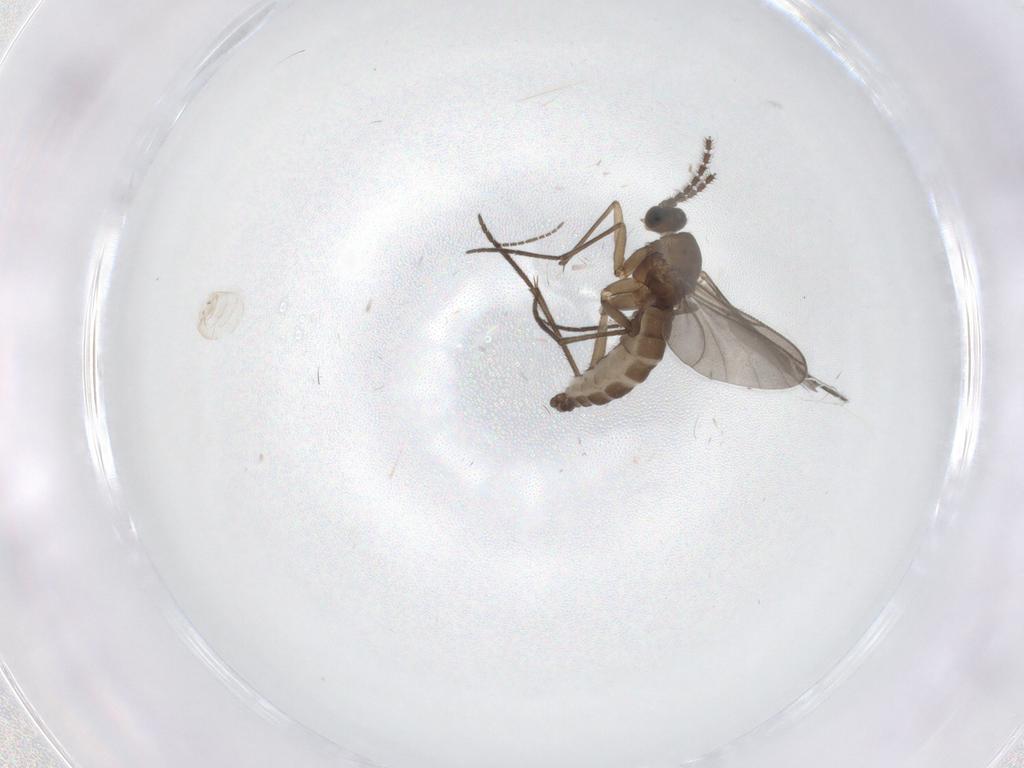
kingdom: Animalia
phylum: Arthropoda
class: Insecta
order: Diptera
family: Sciaridae
